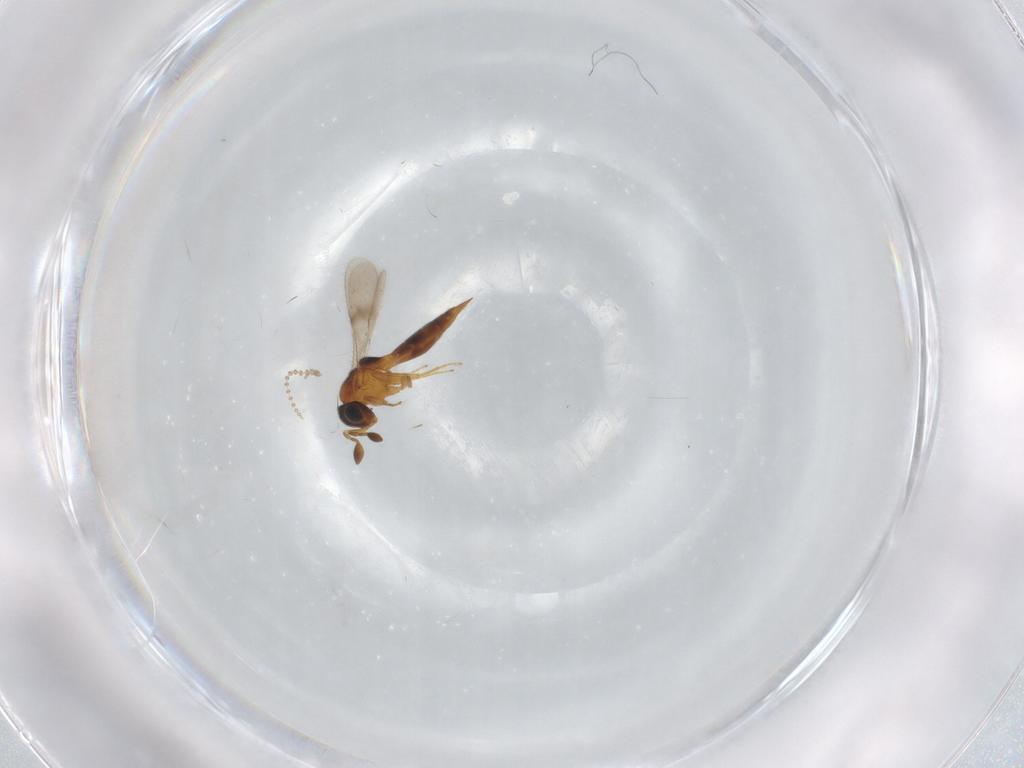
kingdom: Animalia
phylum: Arthropoda
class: Insecta
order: Hymenoptera
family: Scelionidae
